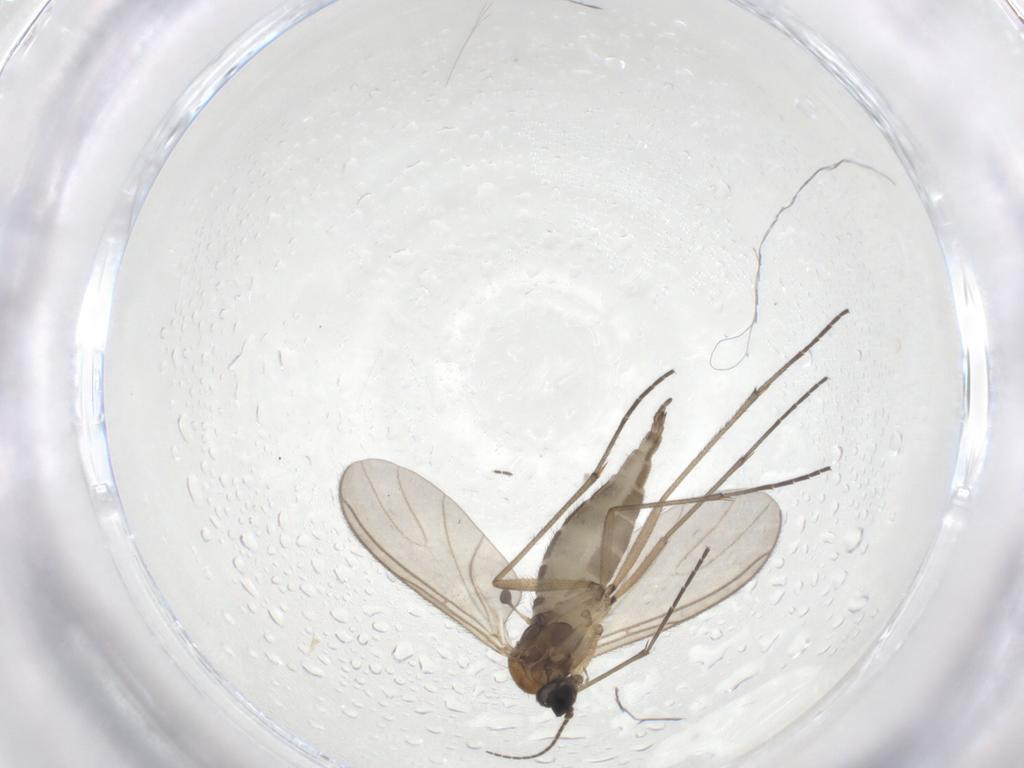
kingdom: Animalia
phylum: Arthropoda
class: Insecta
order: Diptera
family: Sciaridae
